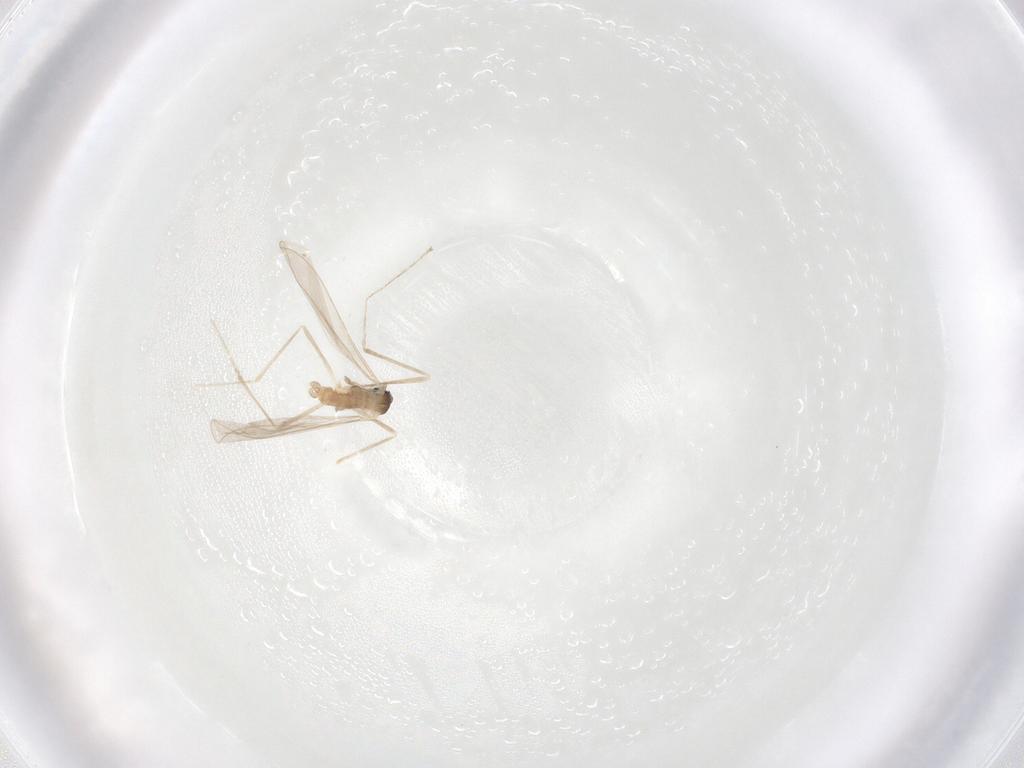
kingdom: Animalia
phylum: Arthropoda
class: Insecta
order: Diptera
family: Cecidomyiidae
